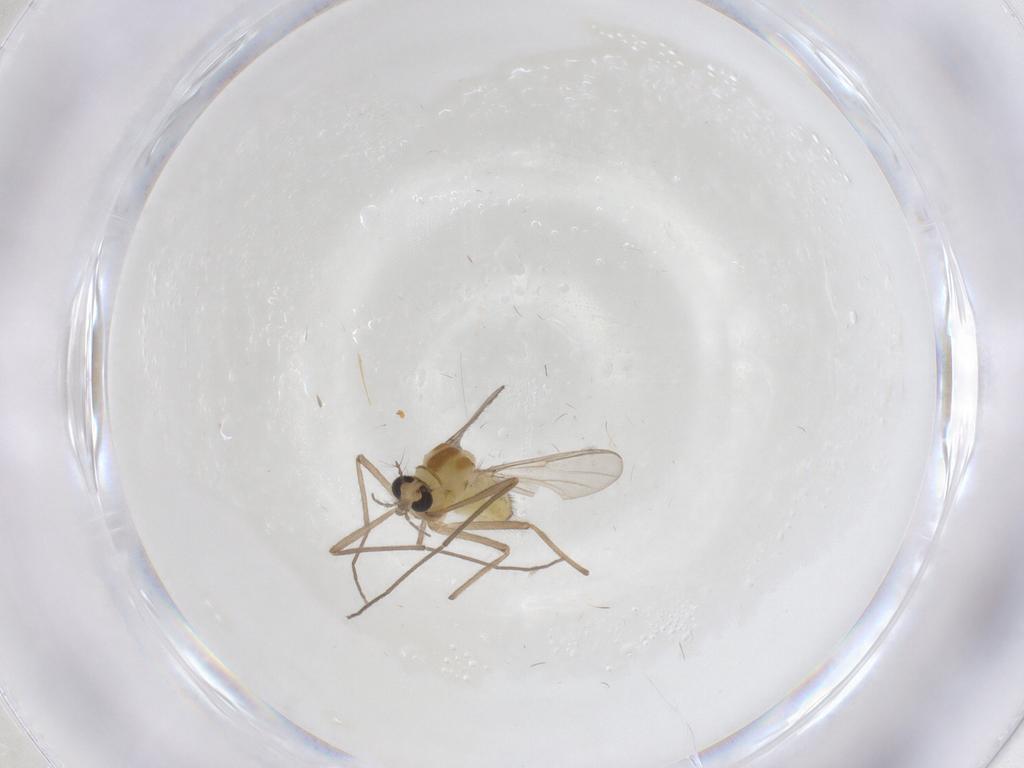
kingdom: Animalia
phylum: Arthropoda
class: Insecta
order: Diptera
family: Chironomidae
